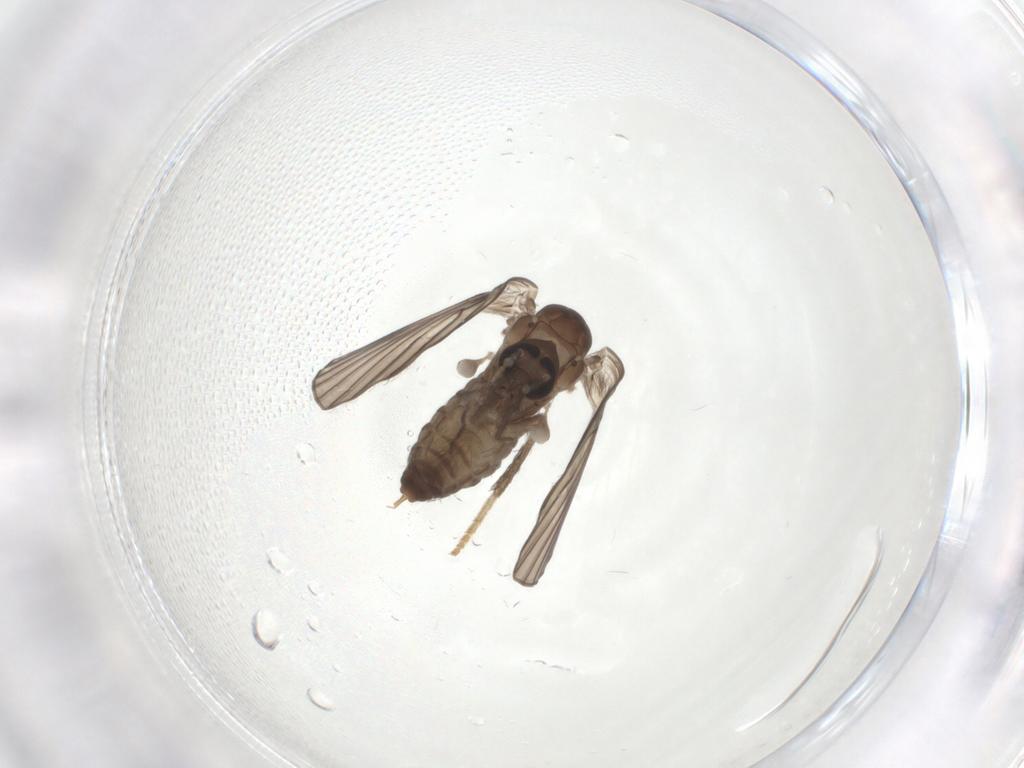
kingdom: Animalia
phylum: Arthropoda
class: Insecta
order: Diptera
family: Psychodidae
